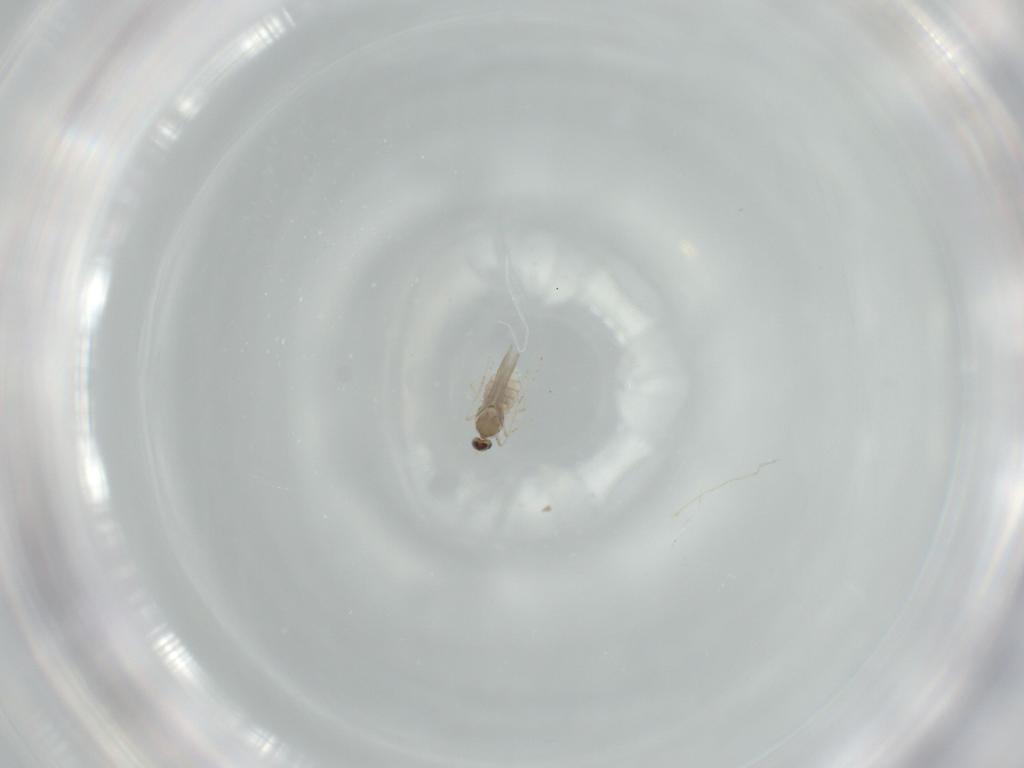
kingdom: Animalia
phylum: Arthropoda
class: Insecta
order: Diptera
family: Cecidomyiidae
